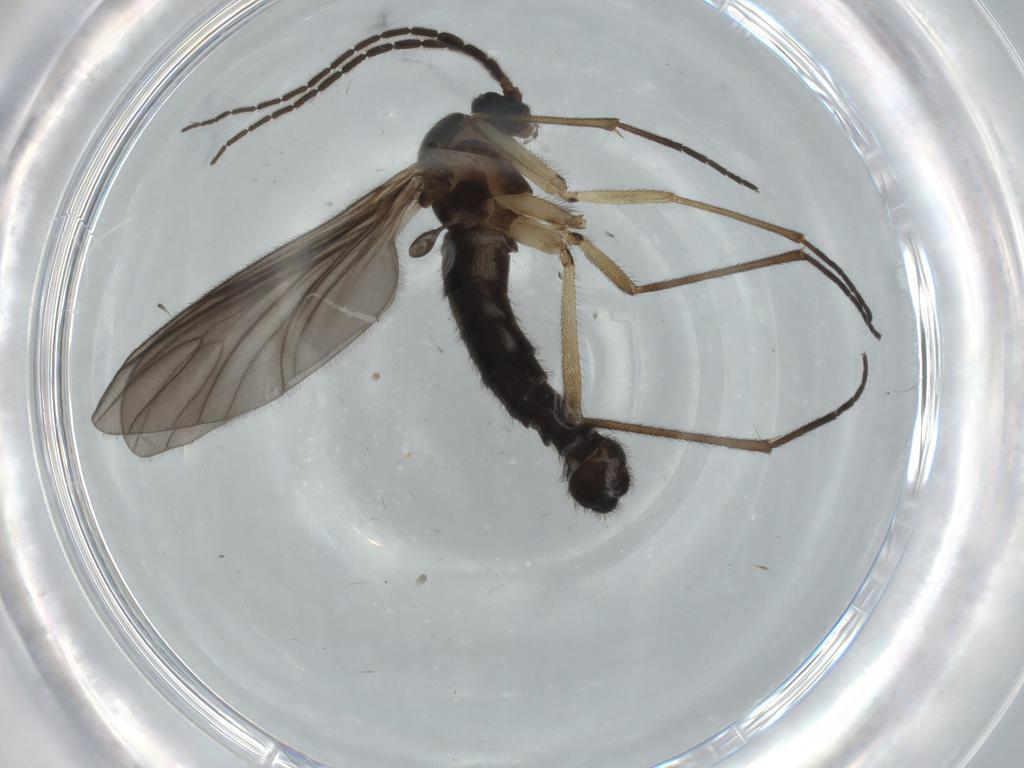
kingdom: Animalia
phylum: Arthropoda
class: Insecta
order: Diptera
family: Sciaridae
